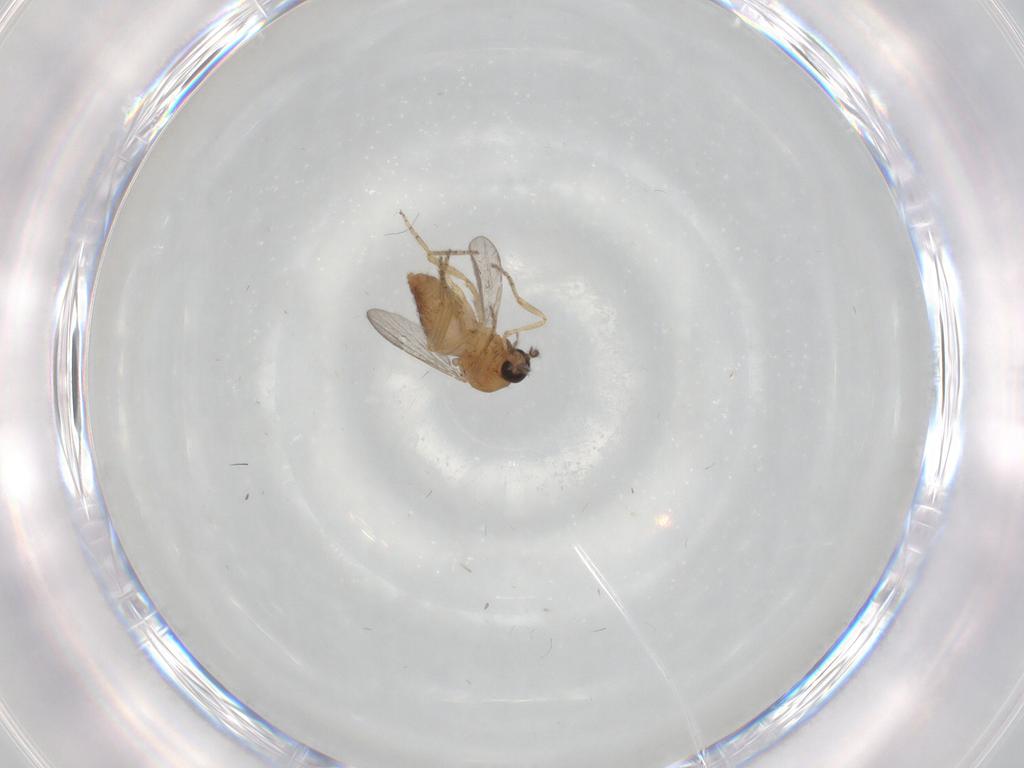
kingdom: Animalia
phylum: Arthropoda
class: Insecta
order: Diptera
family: Ceratopogonidae
